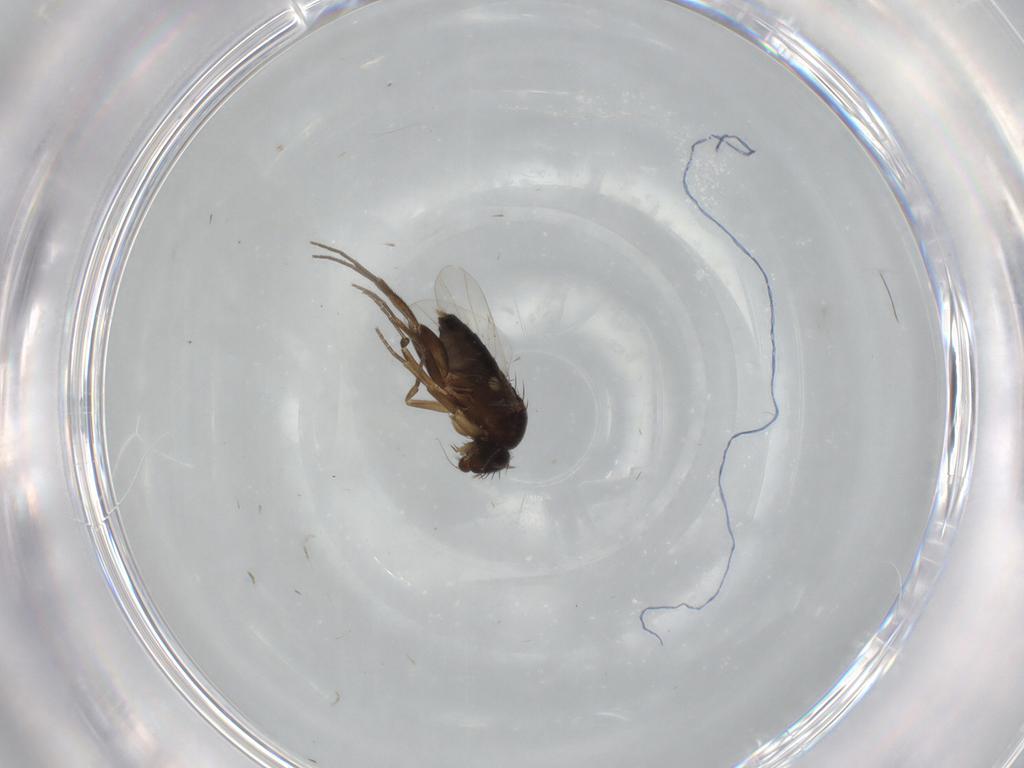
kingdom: Animalia
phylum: Arthropoda
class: Insecta
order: Diptera
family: Phoridae
